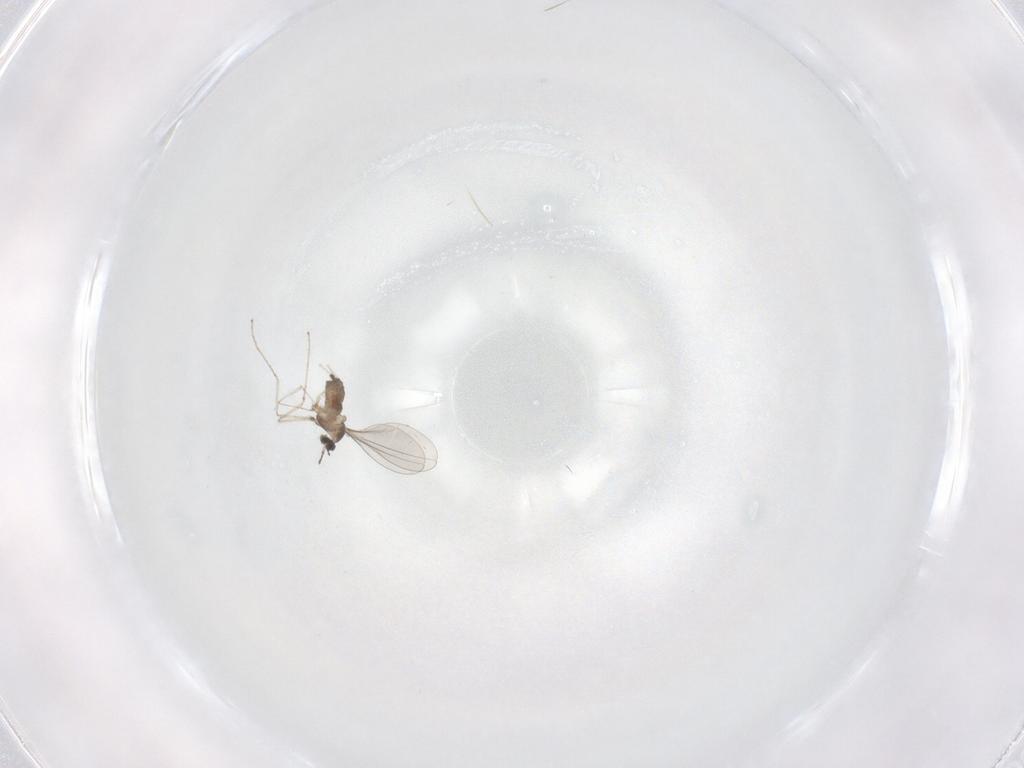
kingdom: Animalia
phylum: Arthropoda
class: Insecta
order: Diptera
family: Cecidomyiidae
